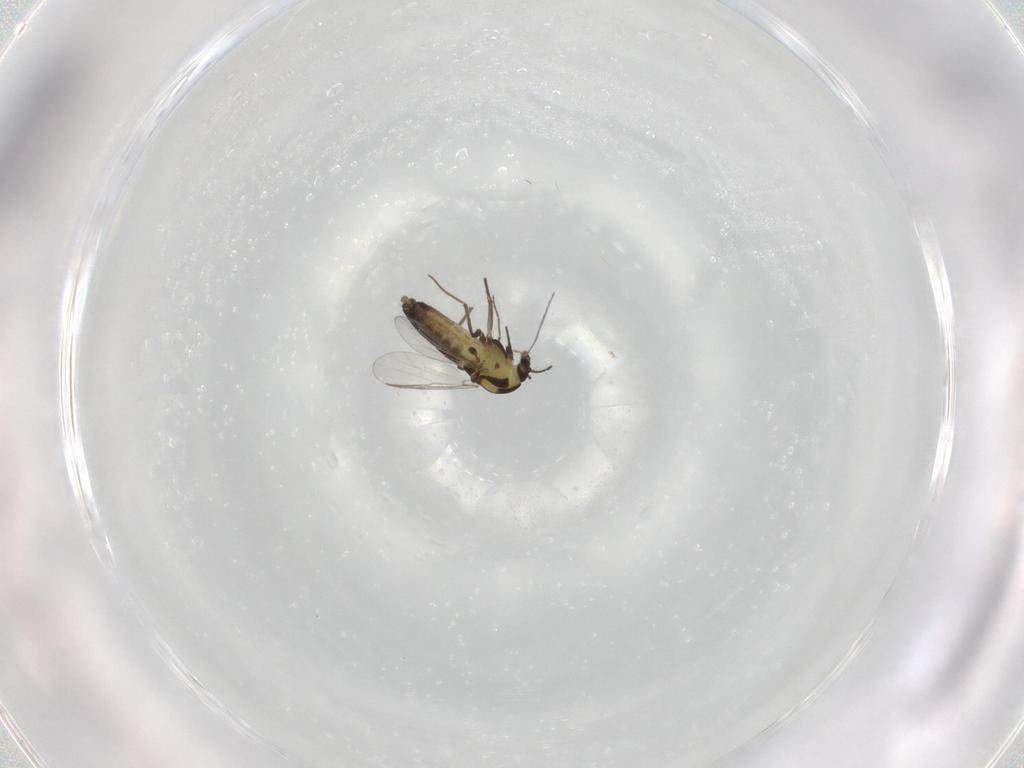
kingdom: Animalia
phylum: Arthropoda
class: Insecta
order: Diptera
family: Chironomidae
